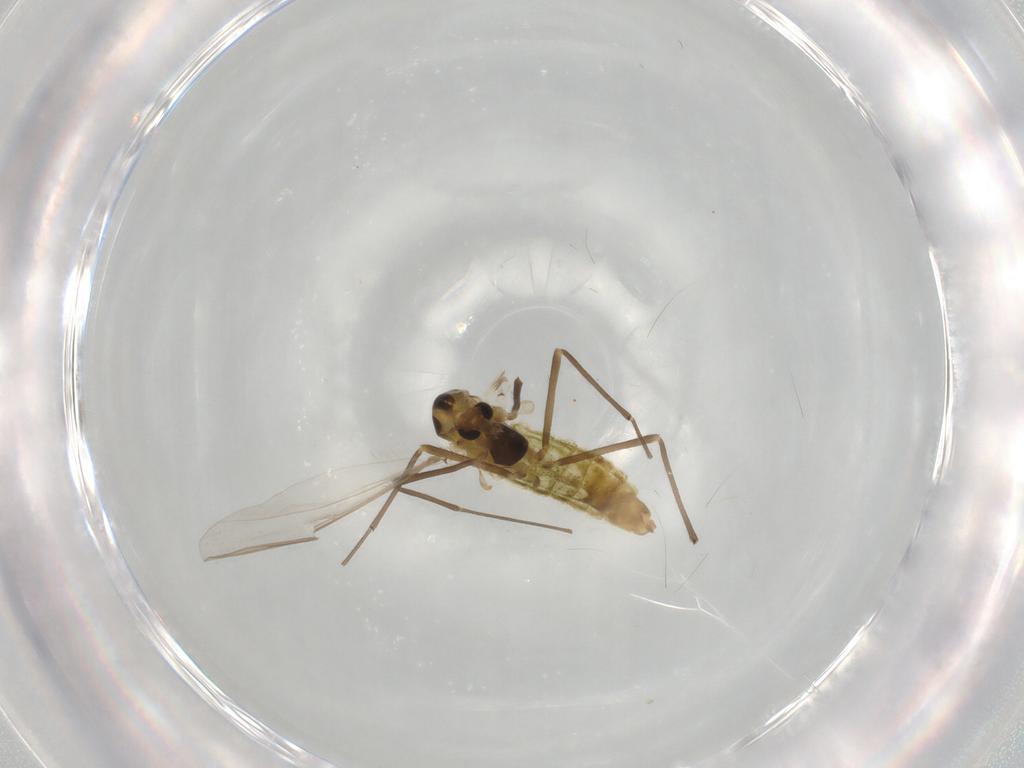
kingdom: Animalia
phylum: Arthropoda
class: Insecta
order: Diptera
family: Chironomidae
